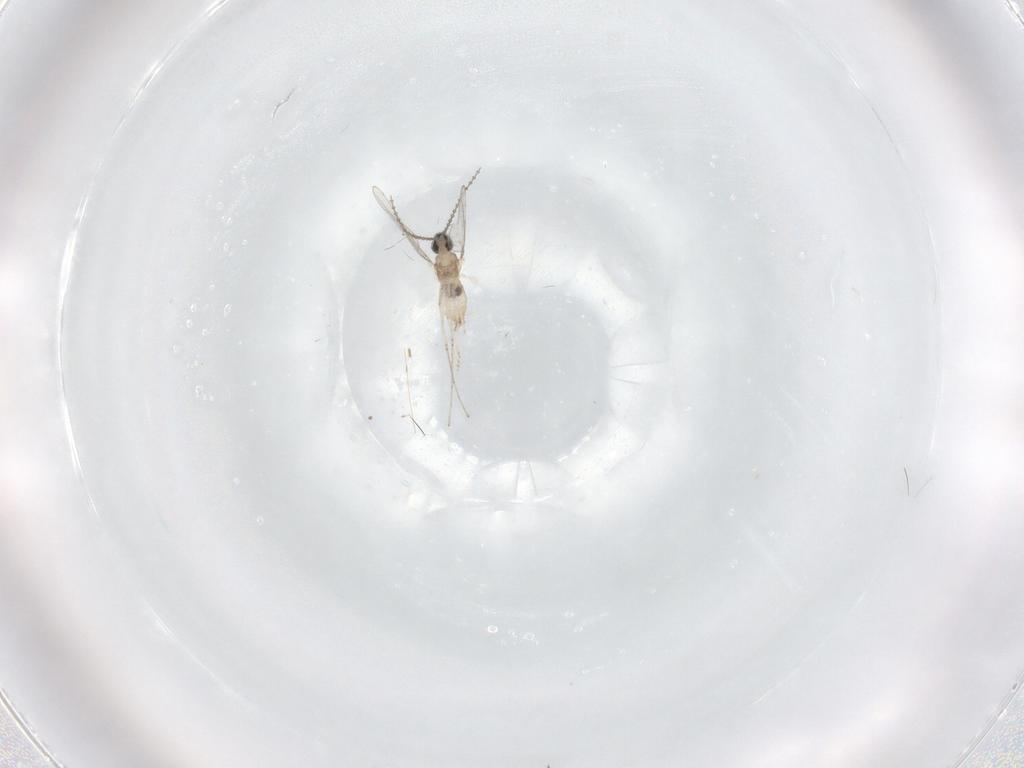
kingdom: Animalia
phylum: Arthropoda
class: Insecta
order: Diptera
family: Cecidomyiidae
